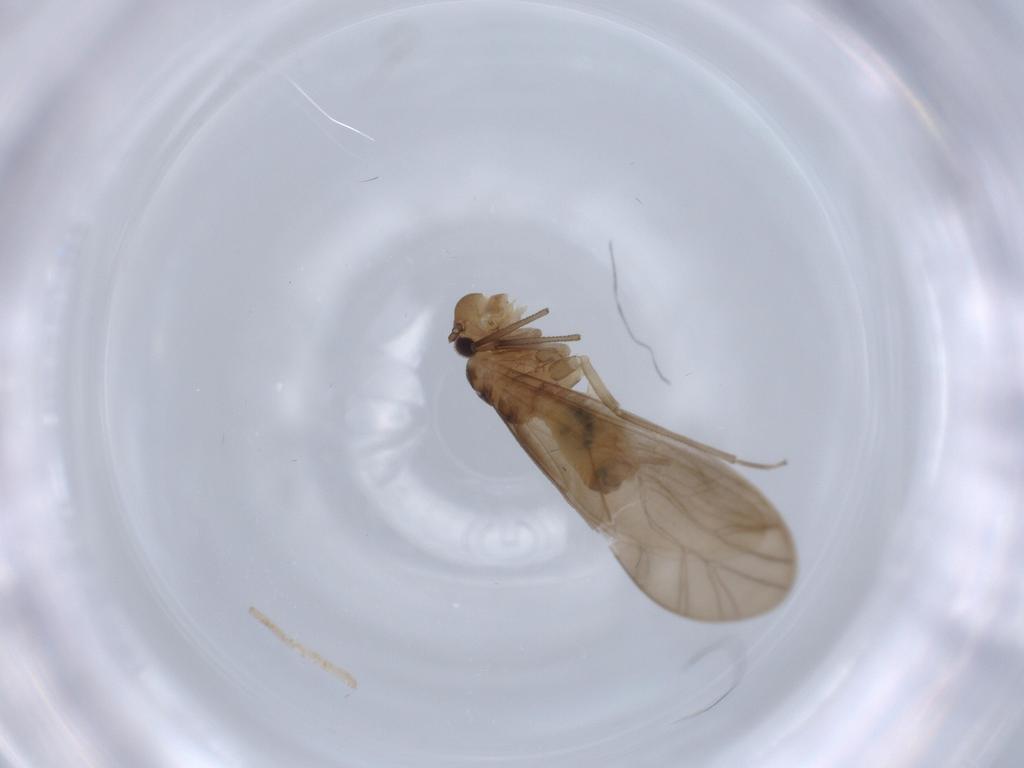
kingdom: Animalia
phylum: Arthropoda
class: Insecta
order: Psocodea
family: Caeciliusidae
